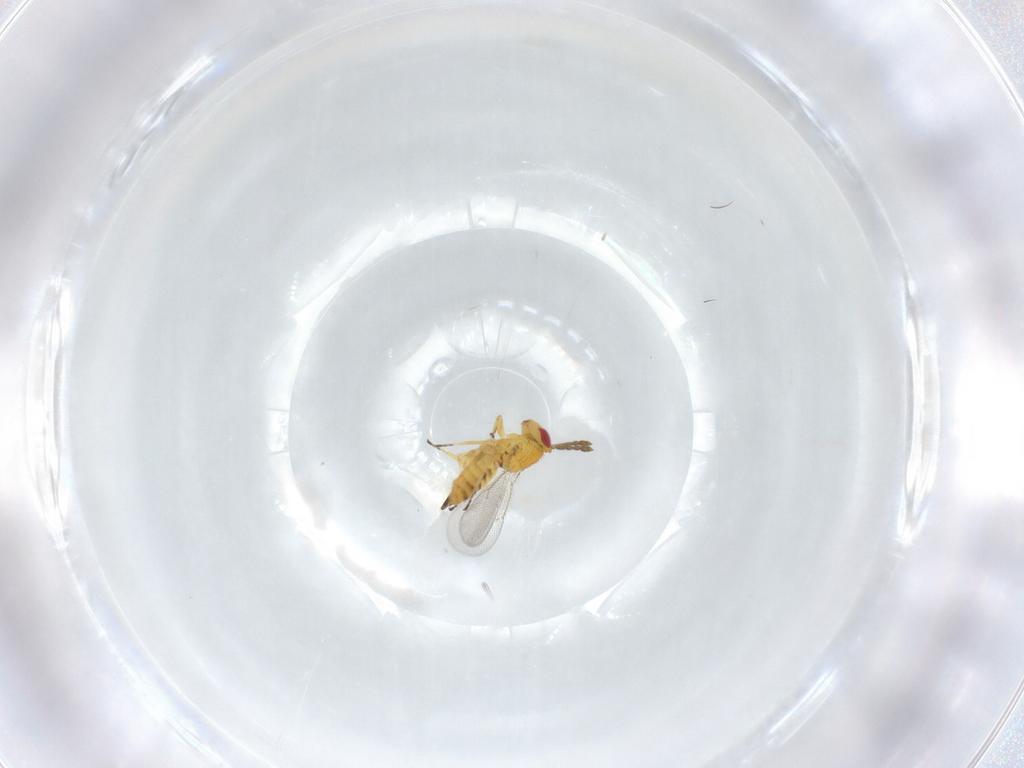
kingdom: Animalia
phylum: Arthropoda
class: Insecta
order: Hymenoptera
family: Eulophidae
